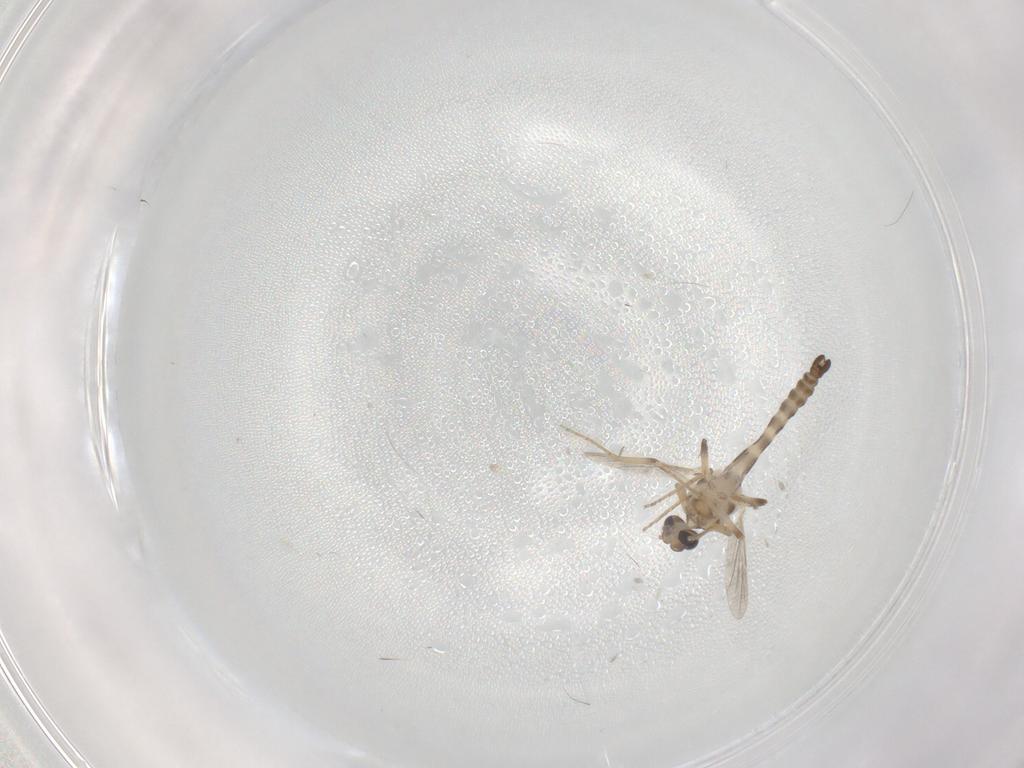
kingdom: Animalia
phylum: Arthropoda
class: Insecta
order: Diptera
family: Ceratopogonidae
